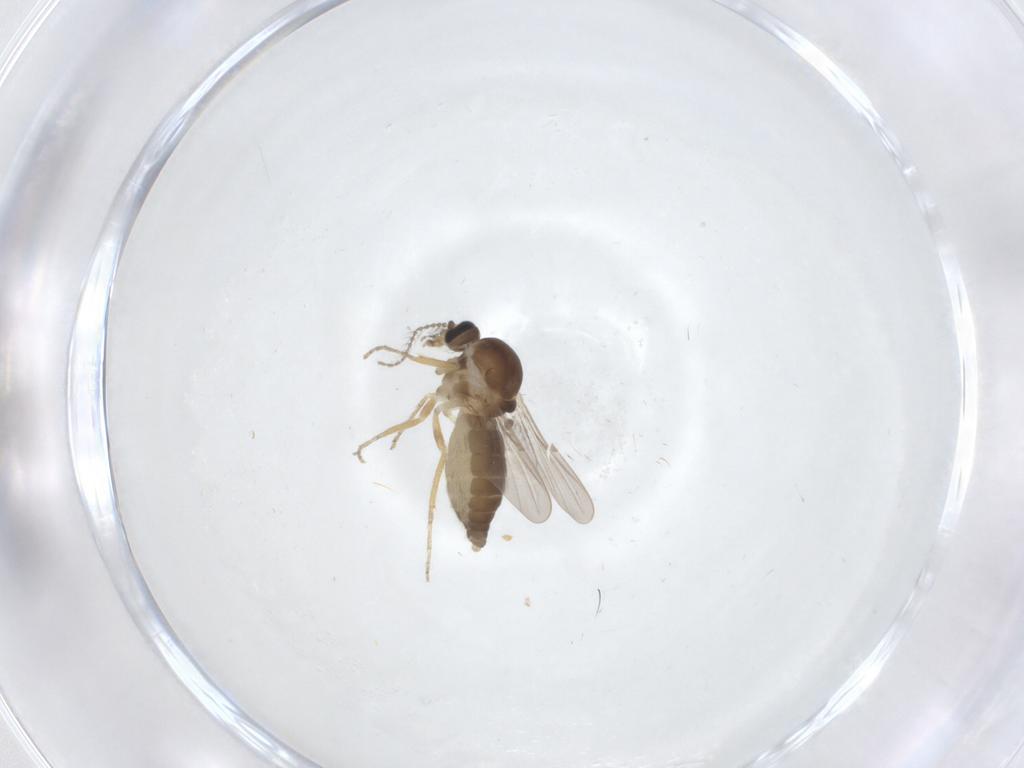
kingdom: Animalia
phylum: Arthropoda
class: Insecta
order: Diptera
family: Ceratopogonidae
